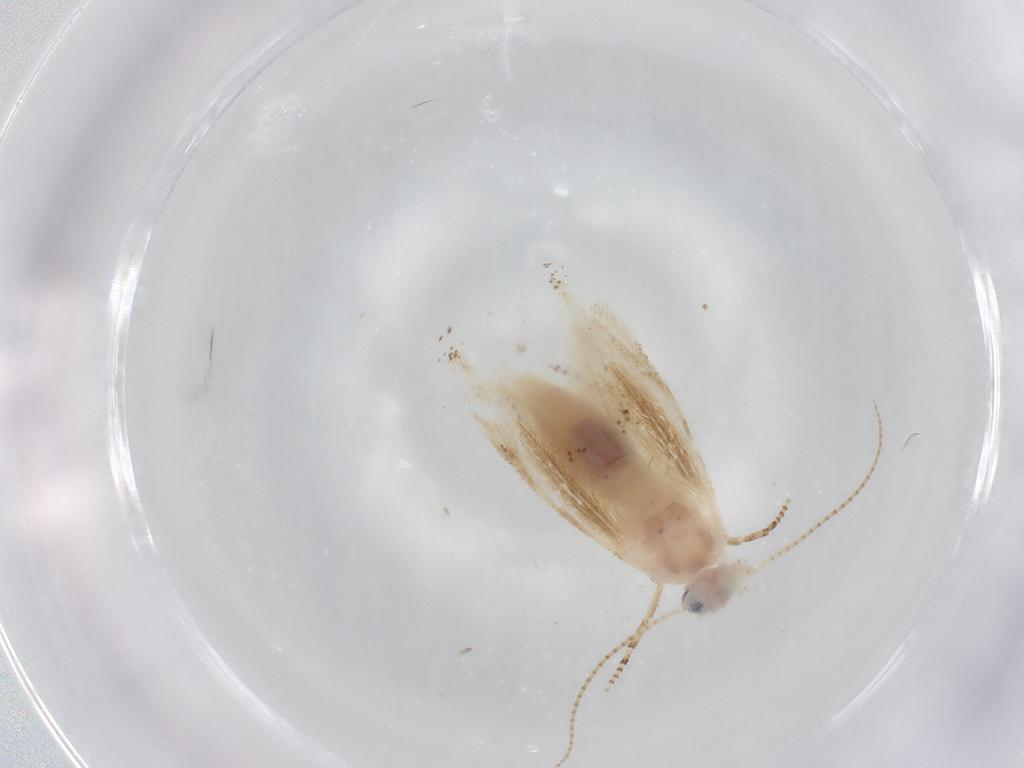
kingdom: Animalia
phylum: Arthropoda
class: Insecta
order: Lepidoptera
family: Bucculatricidae
